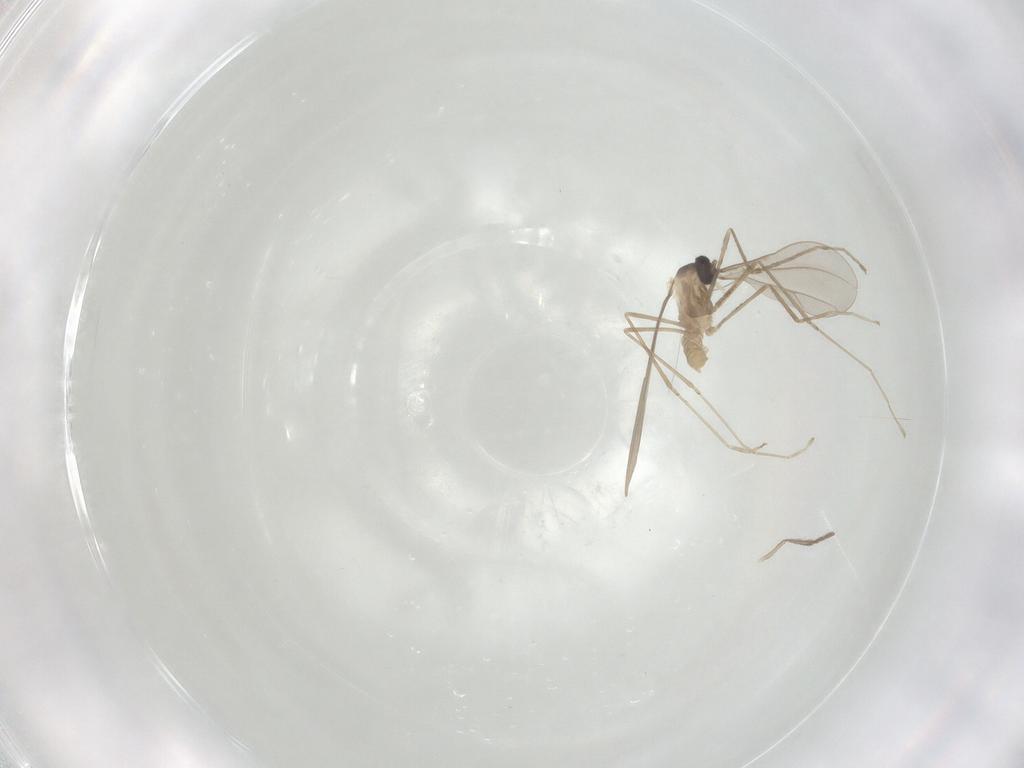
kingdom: Animalia
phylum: Arthropoda
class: Insecta
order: Diptera
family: Cecidomyiidae
